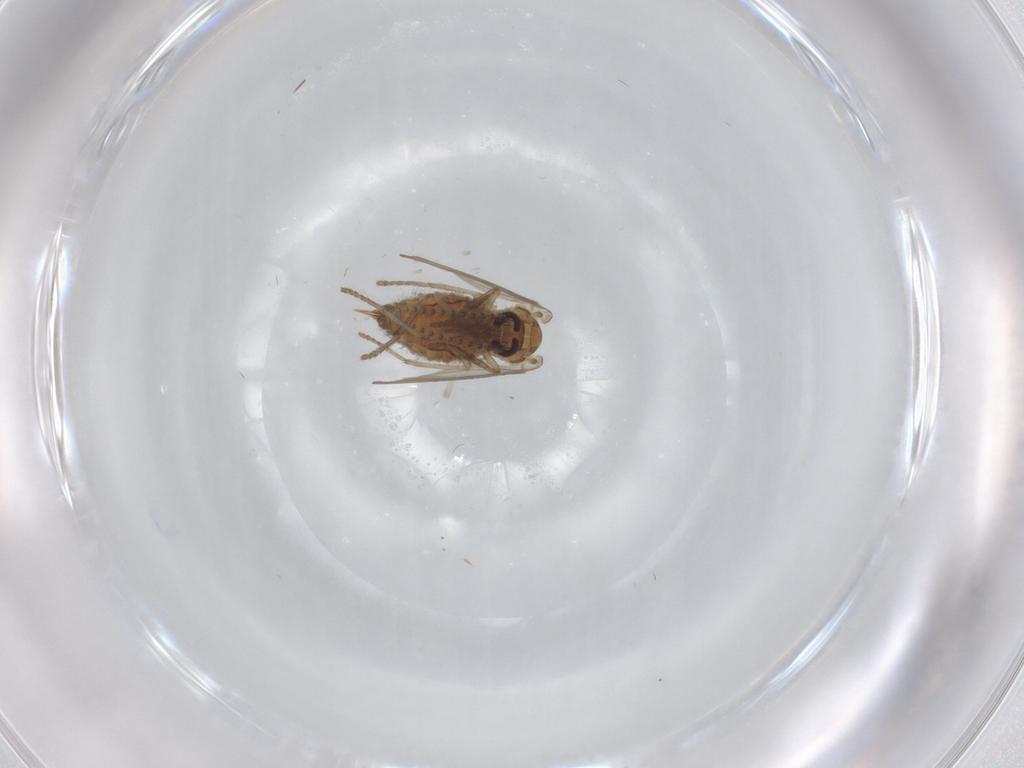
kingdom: Animalia
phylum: Arthropoda
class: Insecta
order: Diptera
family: Psychodidae
